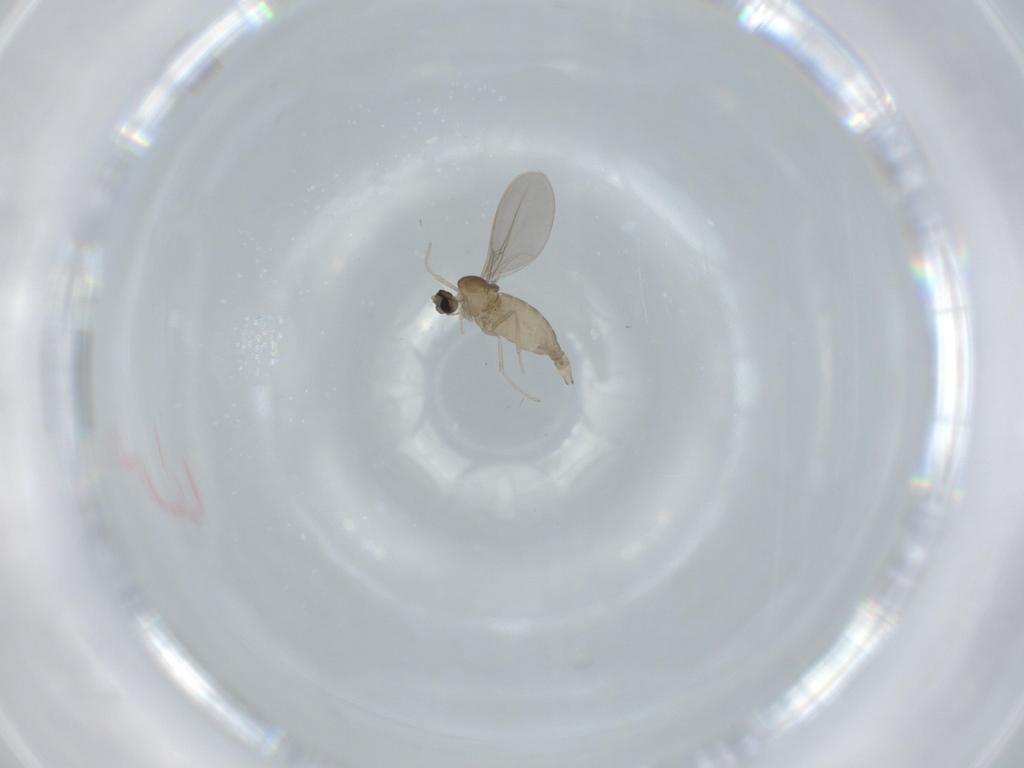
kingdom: Animalia
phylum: Arthropoda
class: Insecta
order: Diptera
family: Cecidomyiidae
